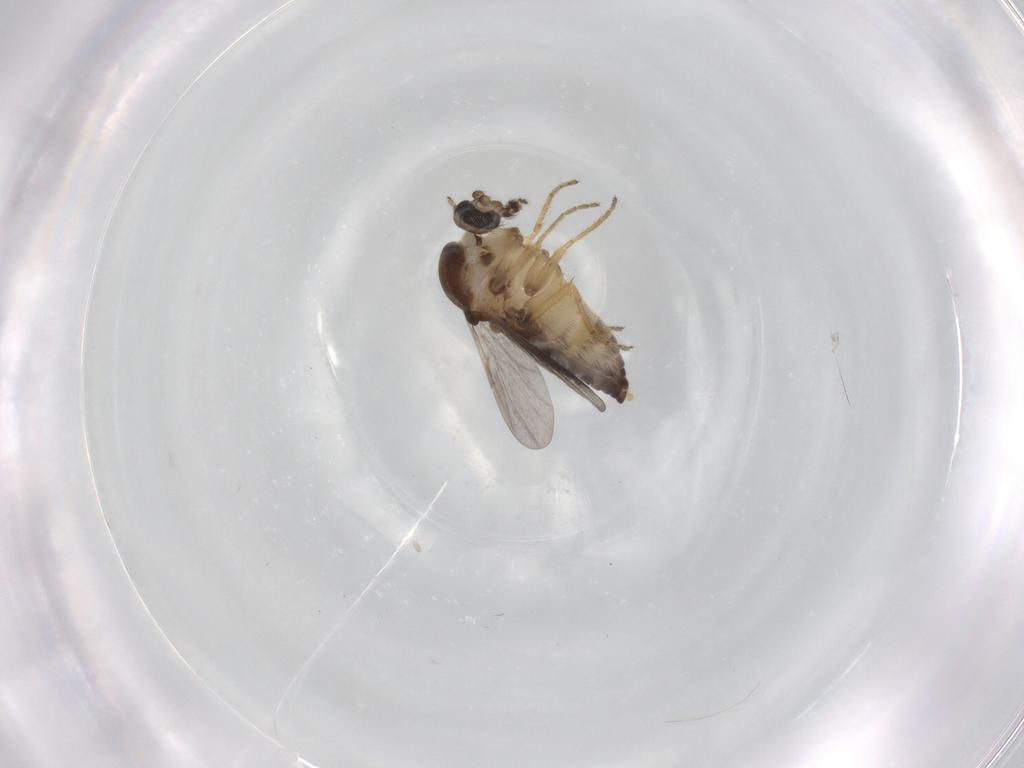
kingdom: Animalia
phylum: Arthropoda
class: Insecta
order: Diptera
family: Ceratopogonidae
